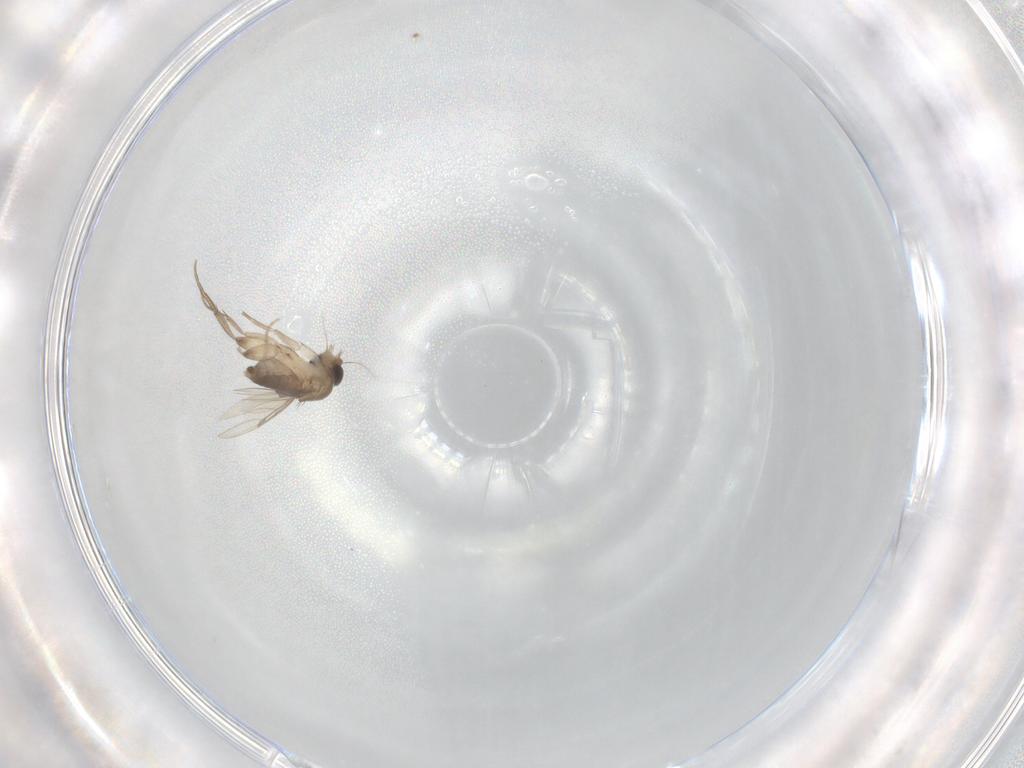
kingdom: Animalia
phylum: Arthropoda
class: Insecta
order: Diptera
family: Phoridae
